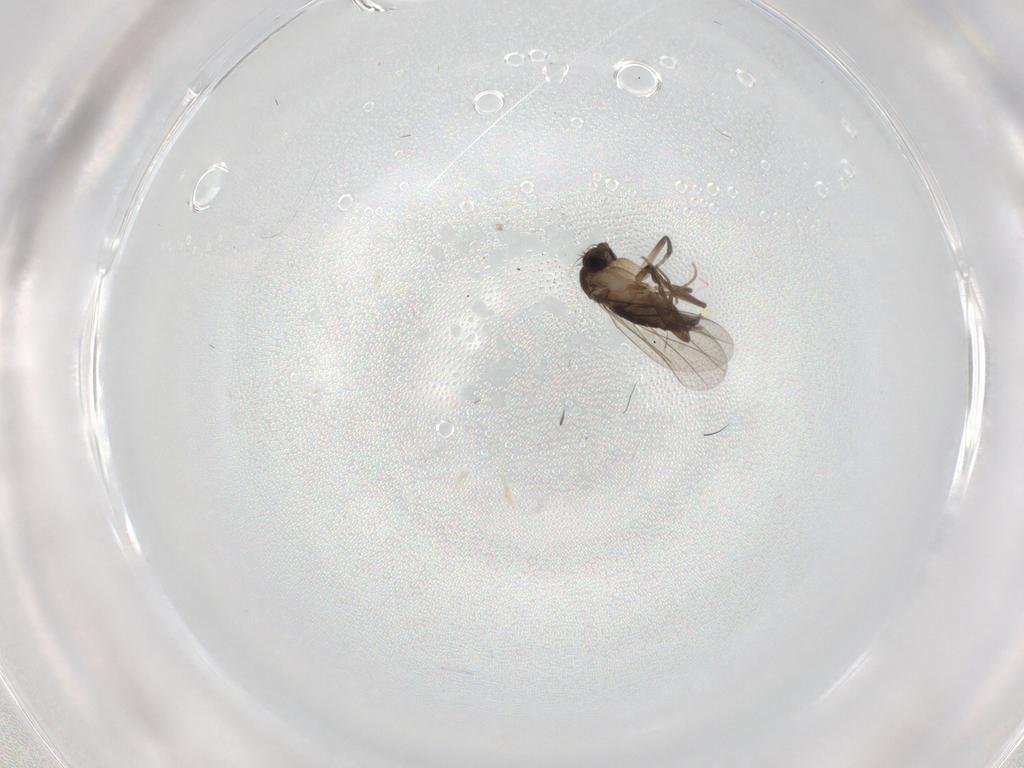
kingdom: Animalia
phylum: Arthropoda
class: Insecta
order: Diptera
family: Phoridae
